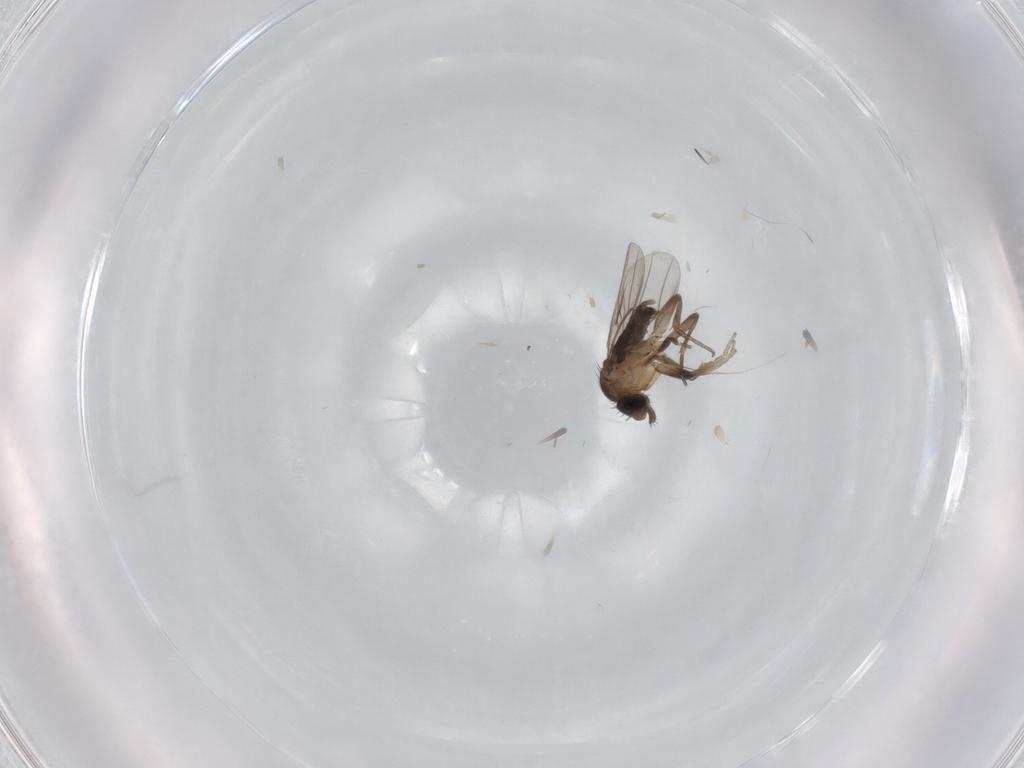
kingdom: Animalia
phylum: Arthropoda
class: Insecta
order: Diptera
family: Phoridae
